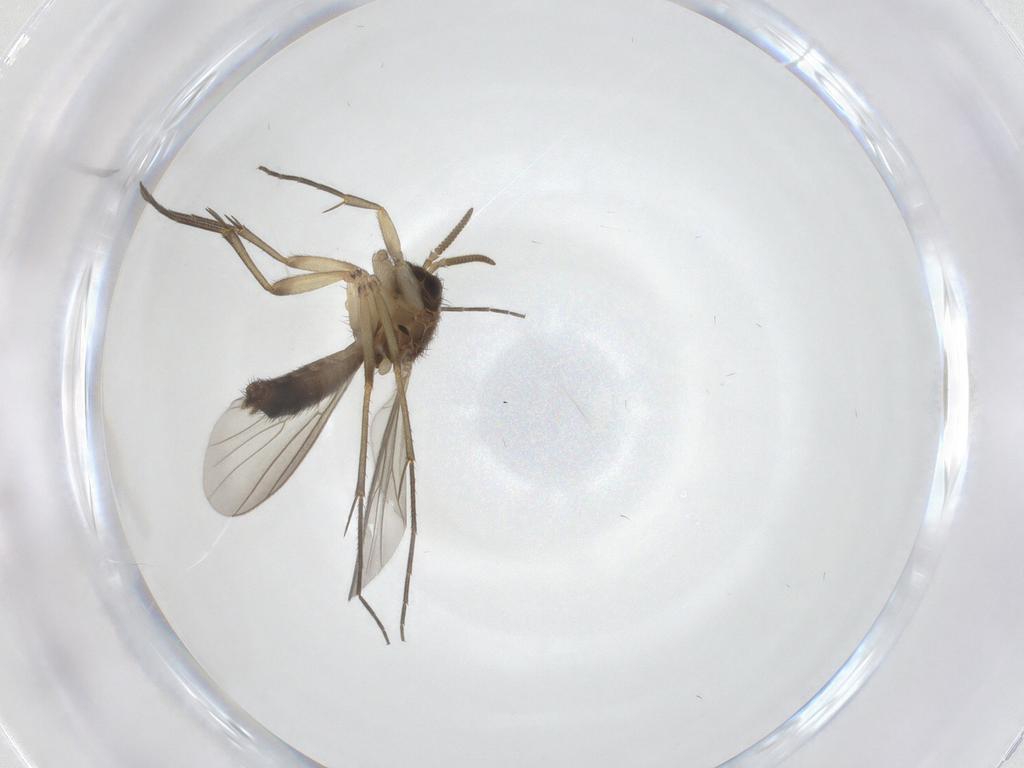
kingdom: Animalia
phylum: Arthropoda
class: Insecta
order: Diptera
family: Mycetophilidae
